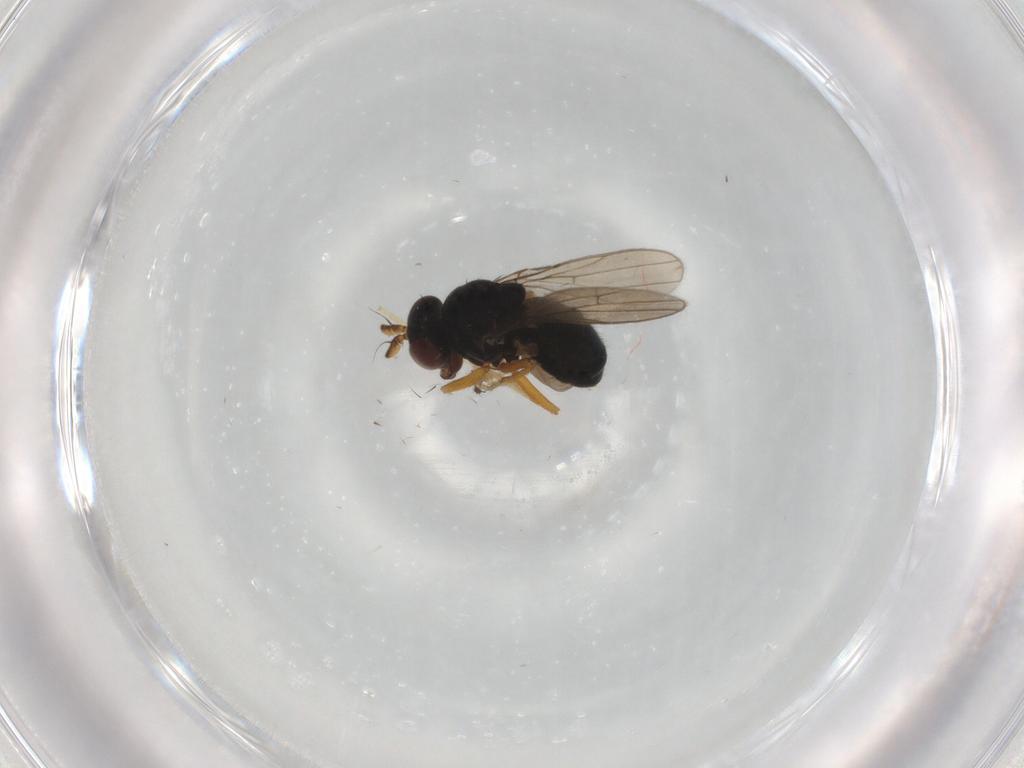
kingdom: Animalia
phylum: Arthropoda
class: Insecta
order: Diptera
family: Ephydridae
